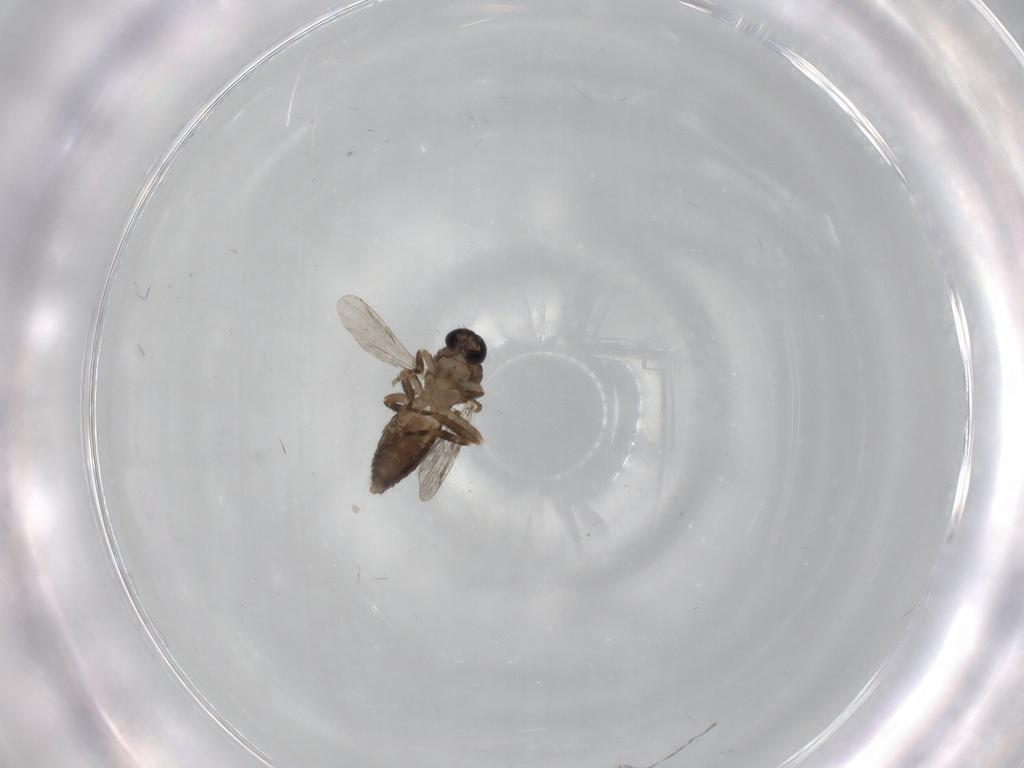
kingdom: Animalia
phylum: Arthropoda
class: Insecta
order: Diptera
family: Ceratopogonidae
